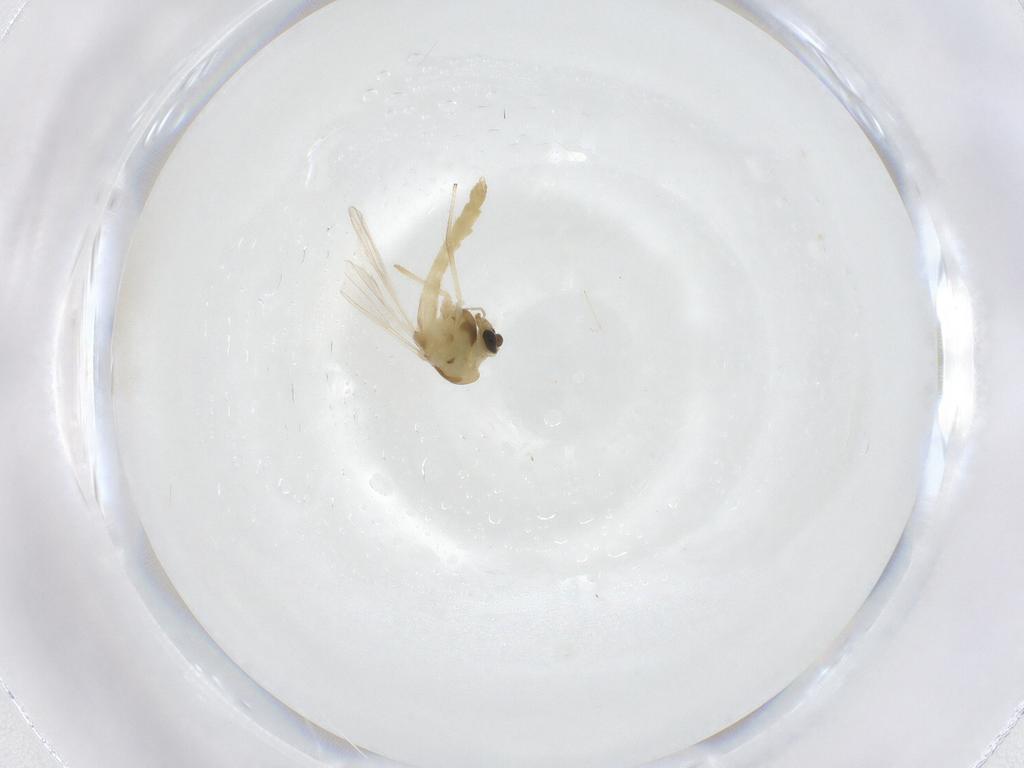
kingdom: Animalia
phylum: Arthropoda
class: Insecta
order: Diptera
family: Chironomidae
